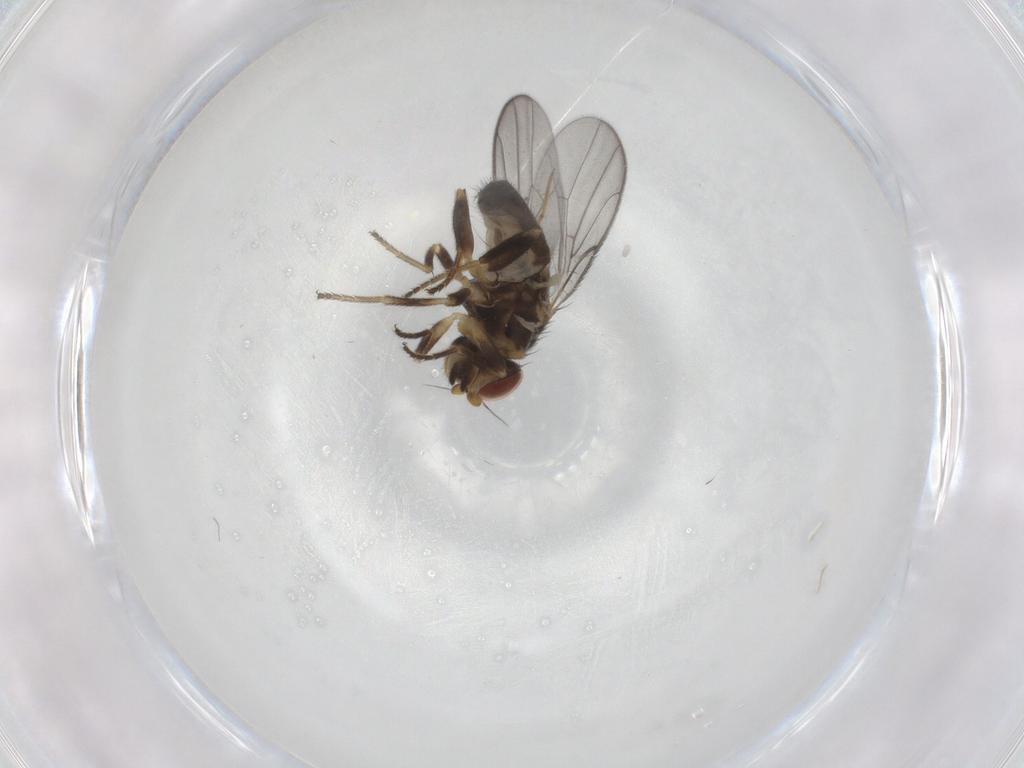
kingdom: Animalia
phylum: Arthropoda
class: Insecta
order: Diptera
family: Chloropidae
